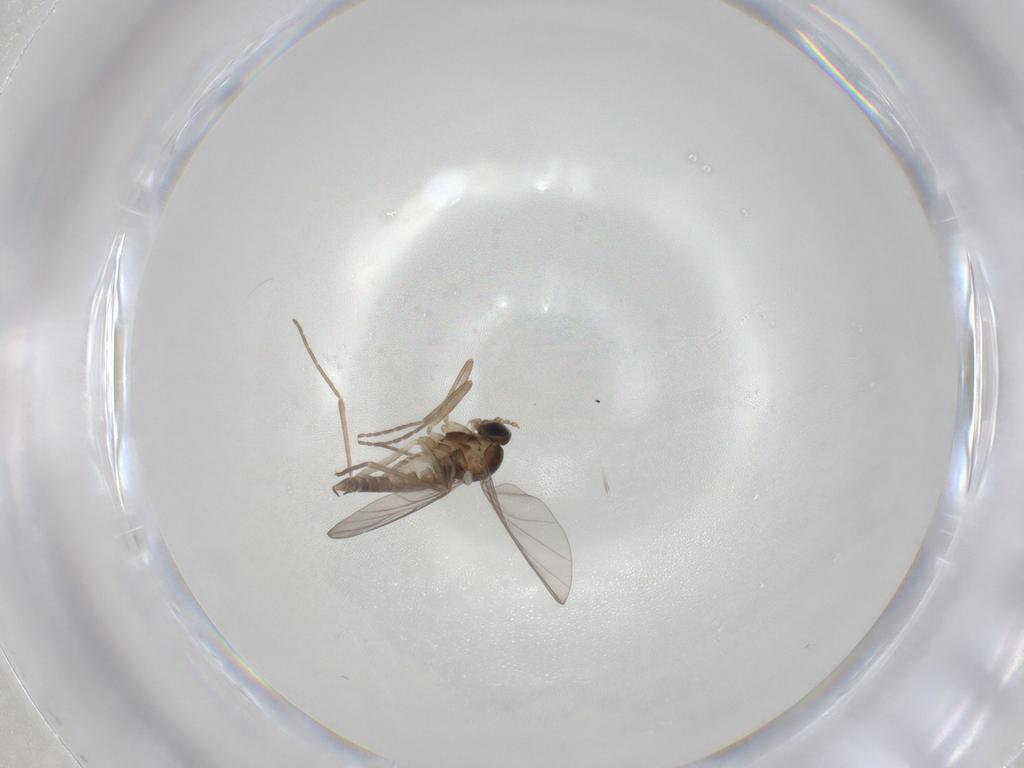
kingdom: Animalia
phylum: Arthropoda
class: Insecta
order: Diptera
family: Cecidomyiidae
